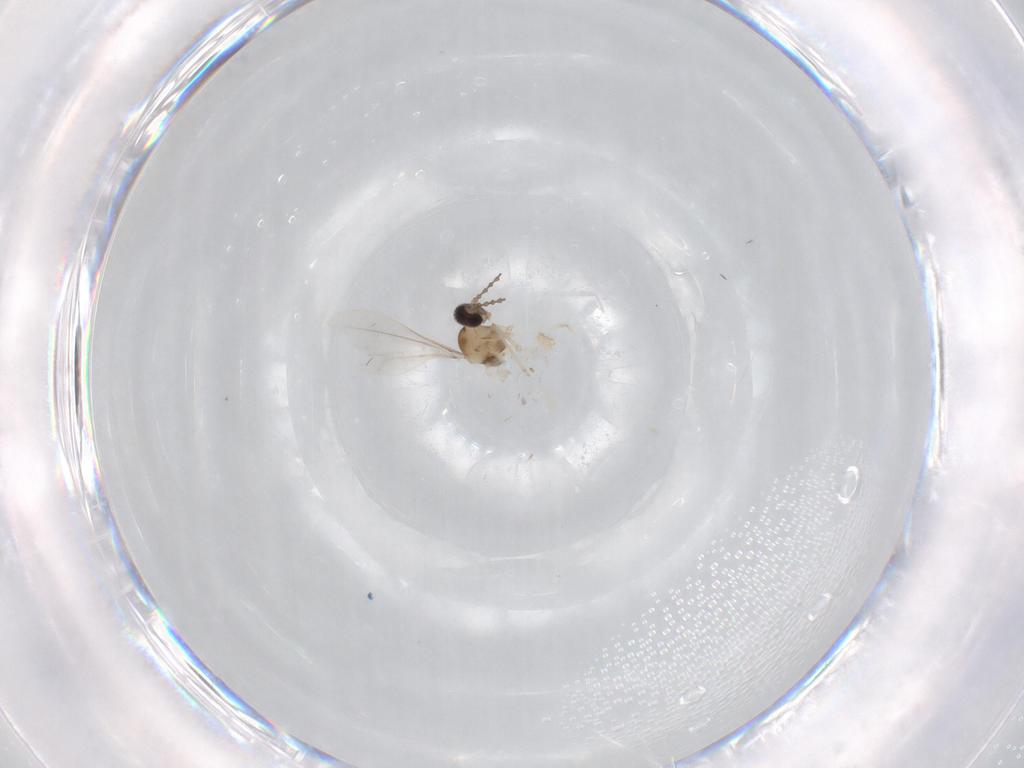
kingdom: Animalia
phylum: Arthropoda
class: Insecta
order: Diptera
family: Cecidomyiidae
